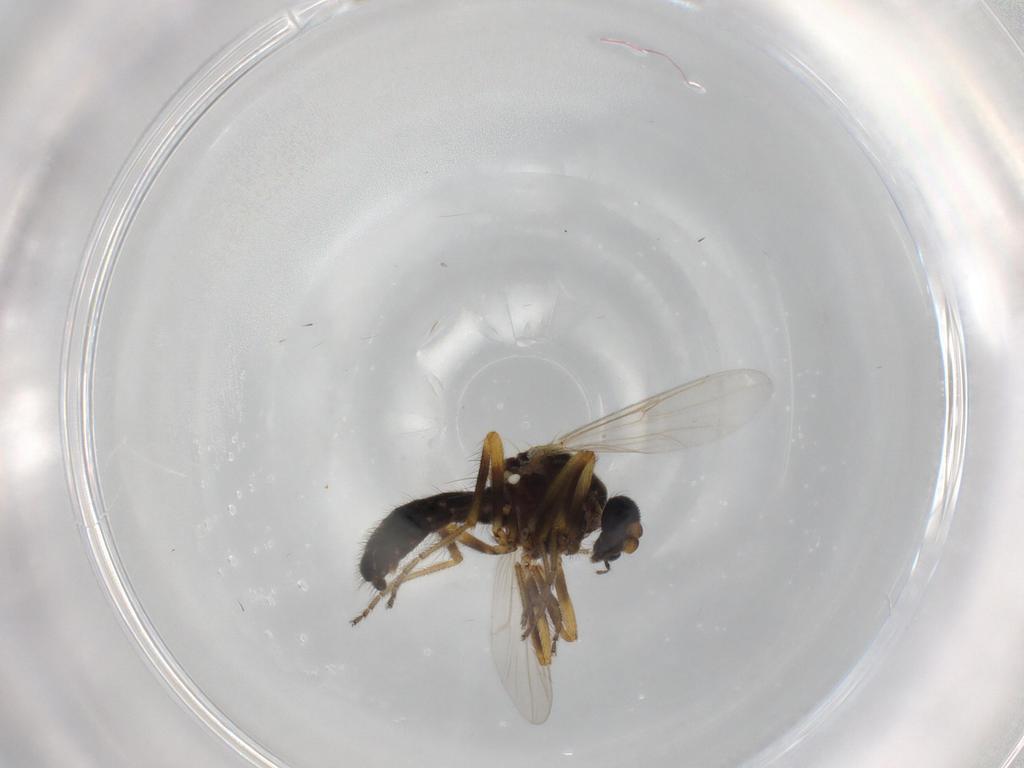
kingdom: Animalia
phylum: Arthropoda
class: Insecta
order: Diptera
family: Ceratopogonidae
